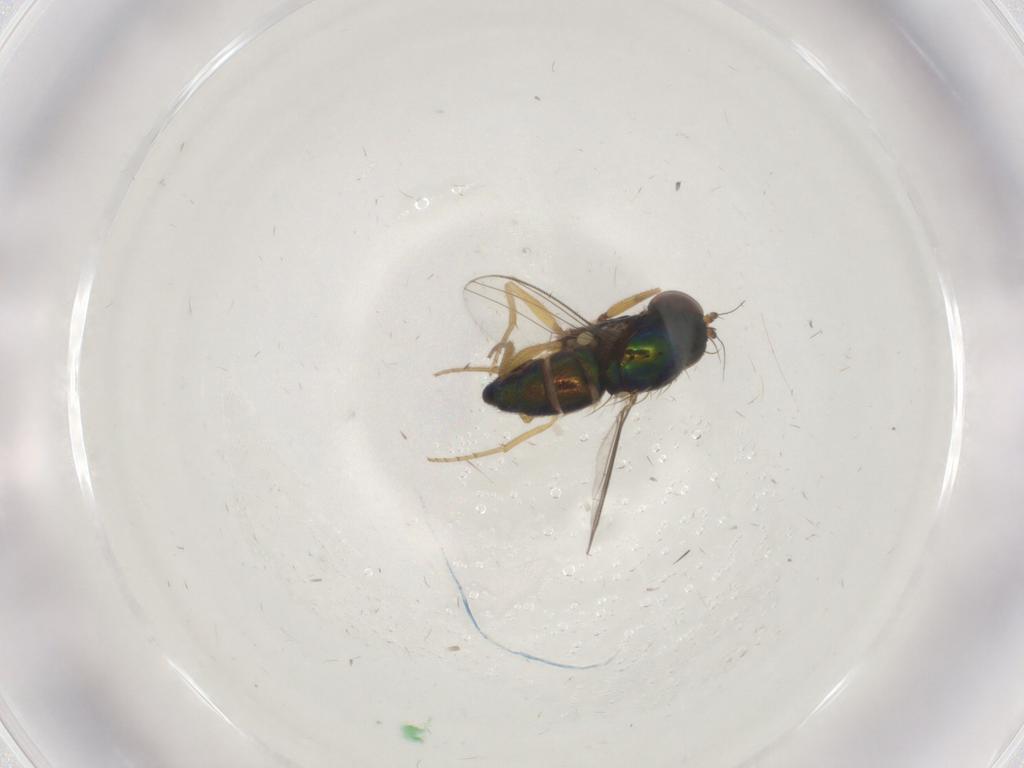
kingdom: Animalia
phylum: Arthropoda
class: Insecta
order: Diptera
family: Dolichopodidae
